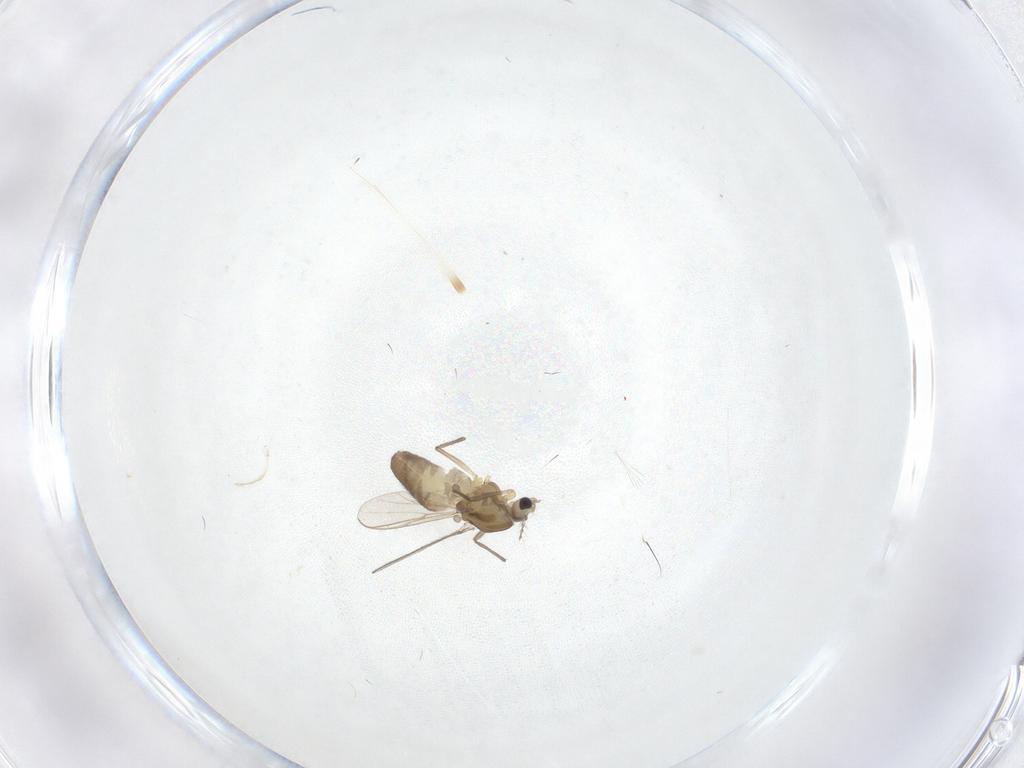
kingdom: Animalia
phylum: Arthropoda
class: Insecta
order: Diptera
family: Chironomidae
